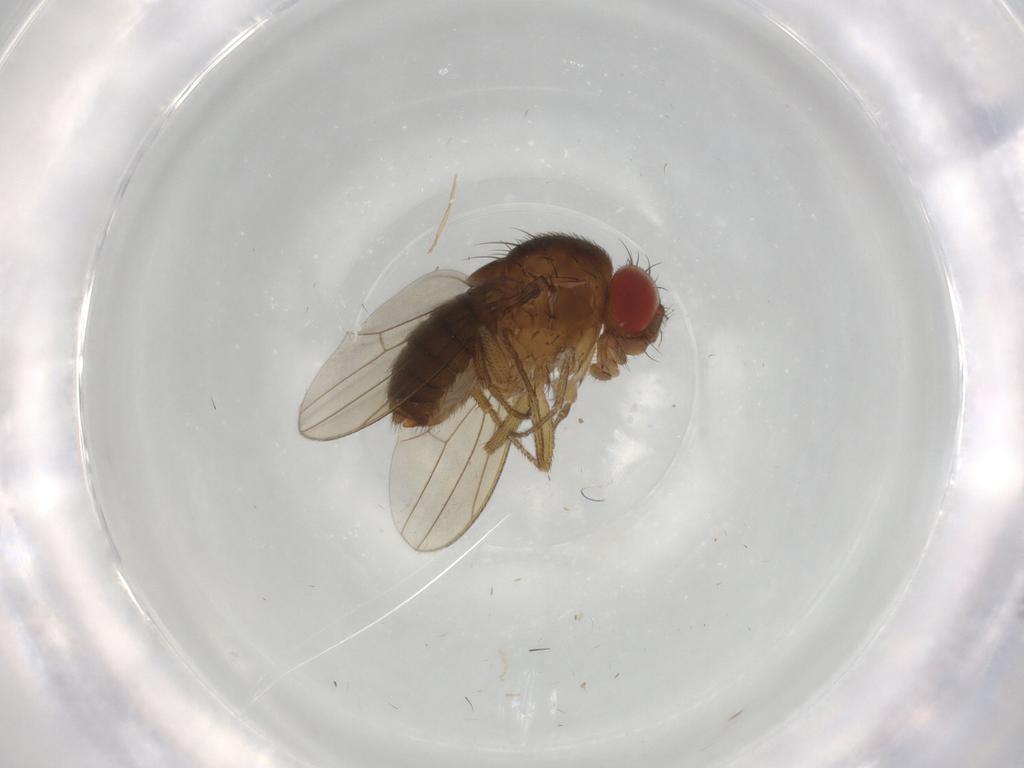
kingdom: Animalia
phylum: Arthropoda
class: Insecta
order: Diptera
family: Drosophilidae
